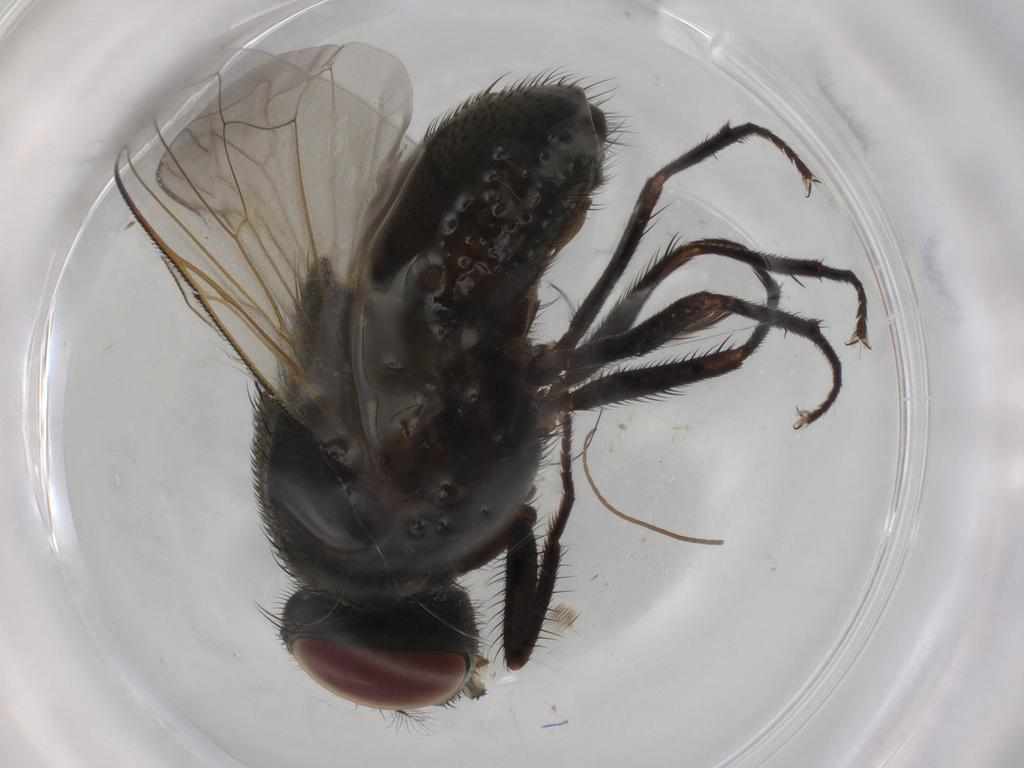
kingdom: Animalia
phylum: Arthropoda
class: Insecta
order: Diptera
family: Muscidae
